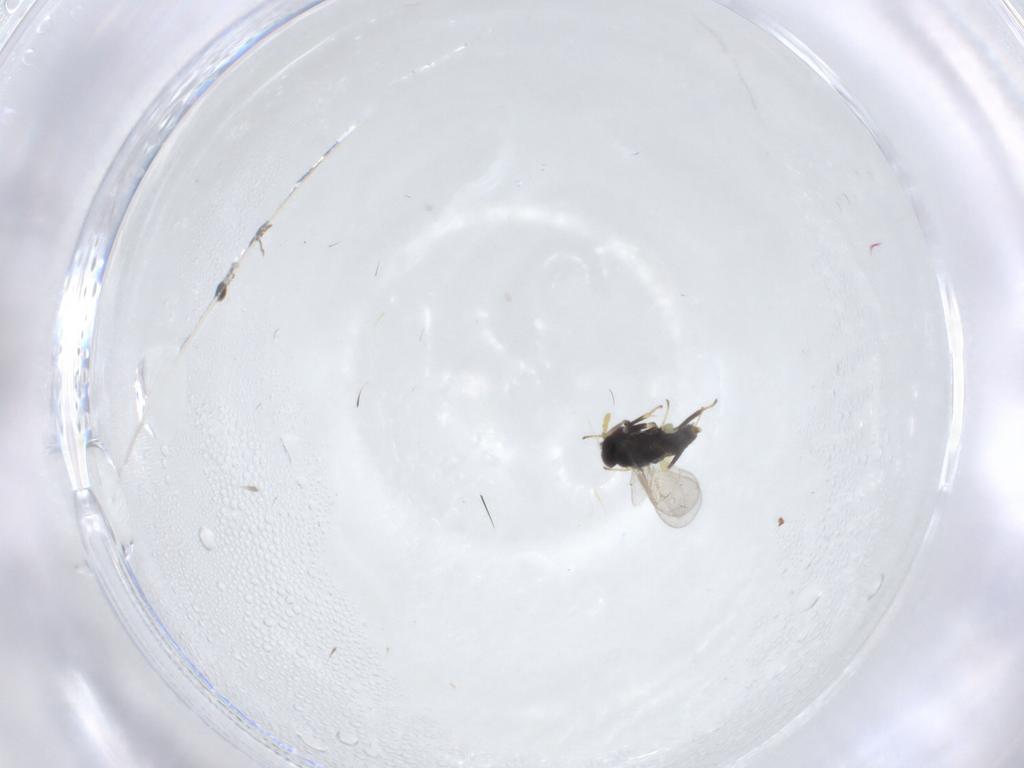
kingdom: Animalia
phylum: Arthropoda
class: Insecta
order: Hymenoptera
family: Aphelinidae
